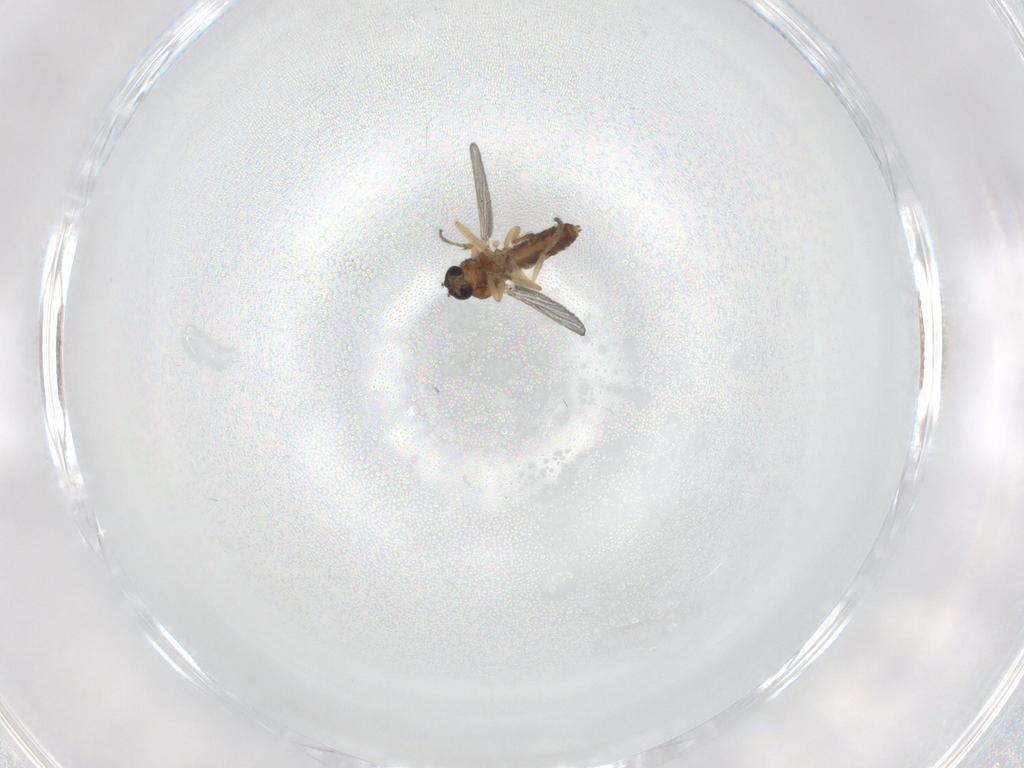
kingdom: Animalia
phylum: Arthropoda
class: Insecta
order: Diptera
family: Ceratopogonidae
